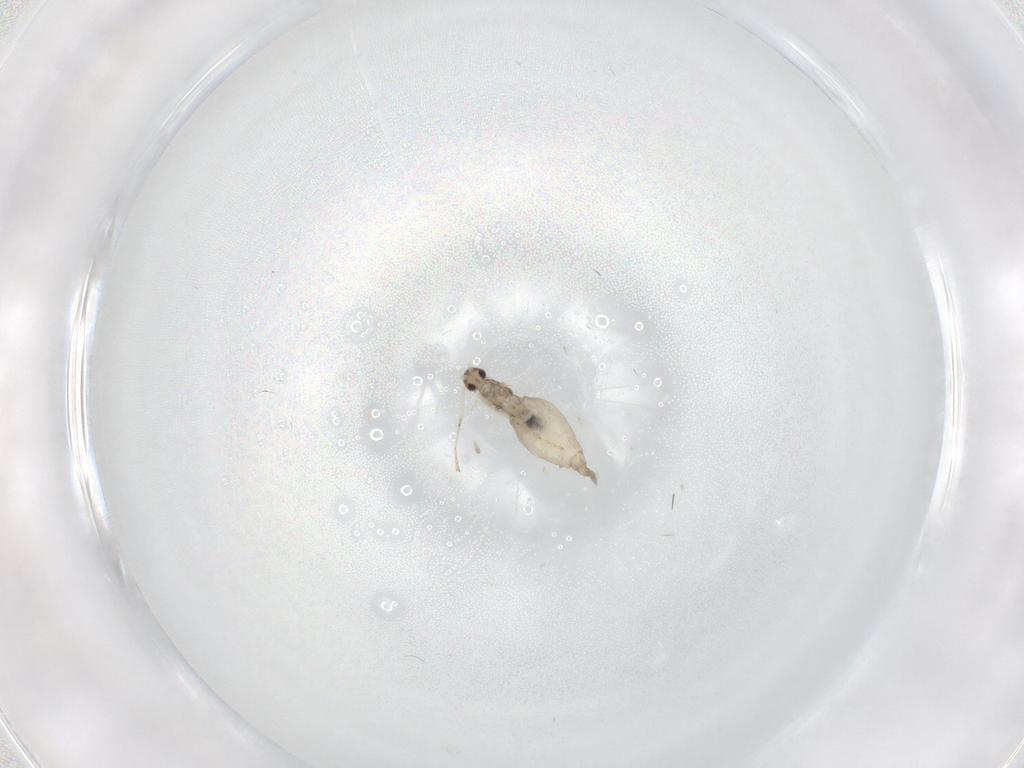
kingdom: Animalia
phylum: Arthropoda
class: Insecta
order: Diptera
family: Cecidomyiidae
